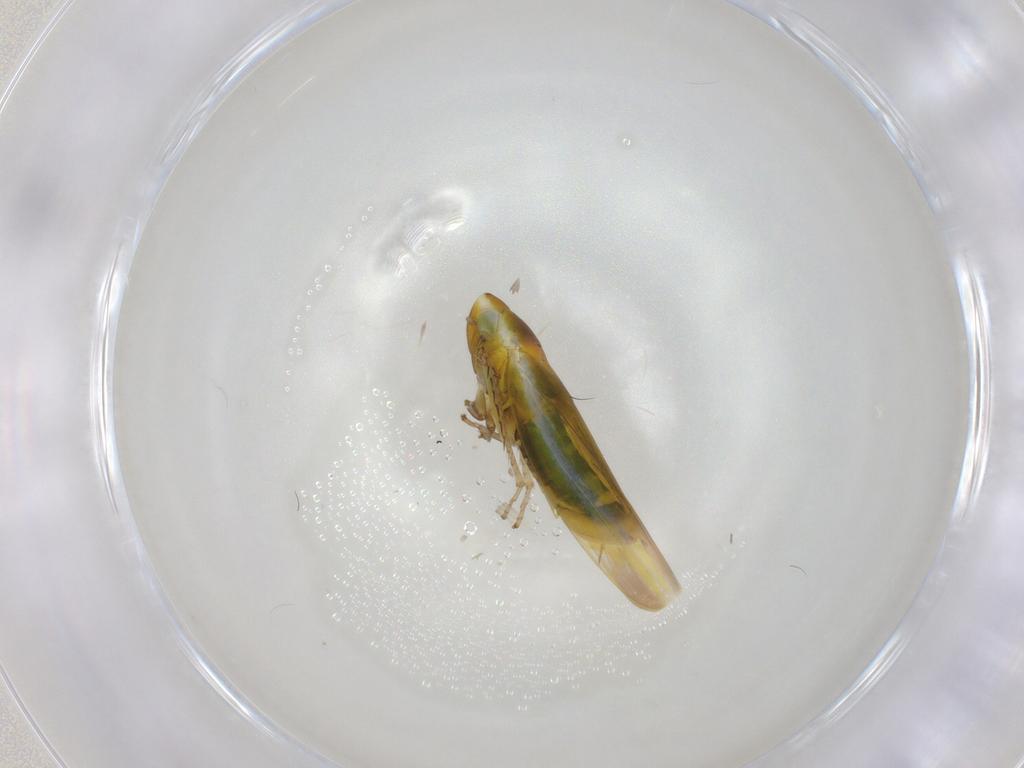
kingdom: Animalia
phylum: Arthropoda
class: Insecta
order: Hemiptera
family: Cicadellidae
